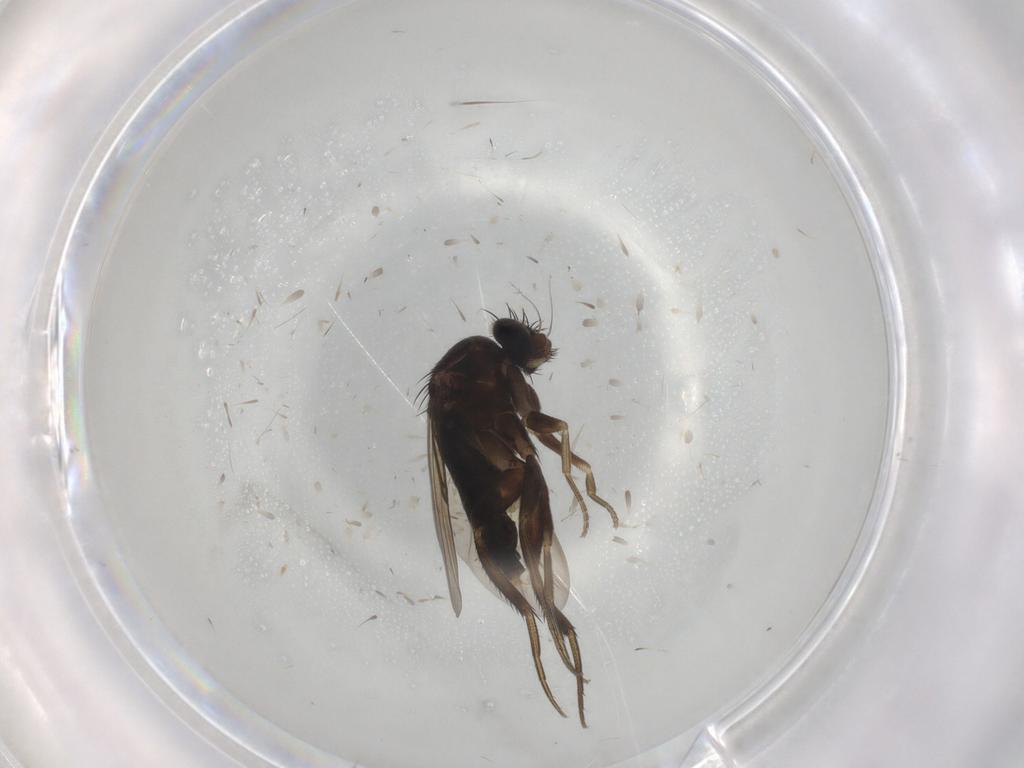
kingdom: Animalia
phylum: Arthropoda
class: Insecta
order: Diptera
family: Phoridae
